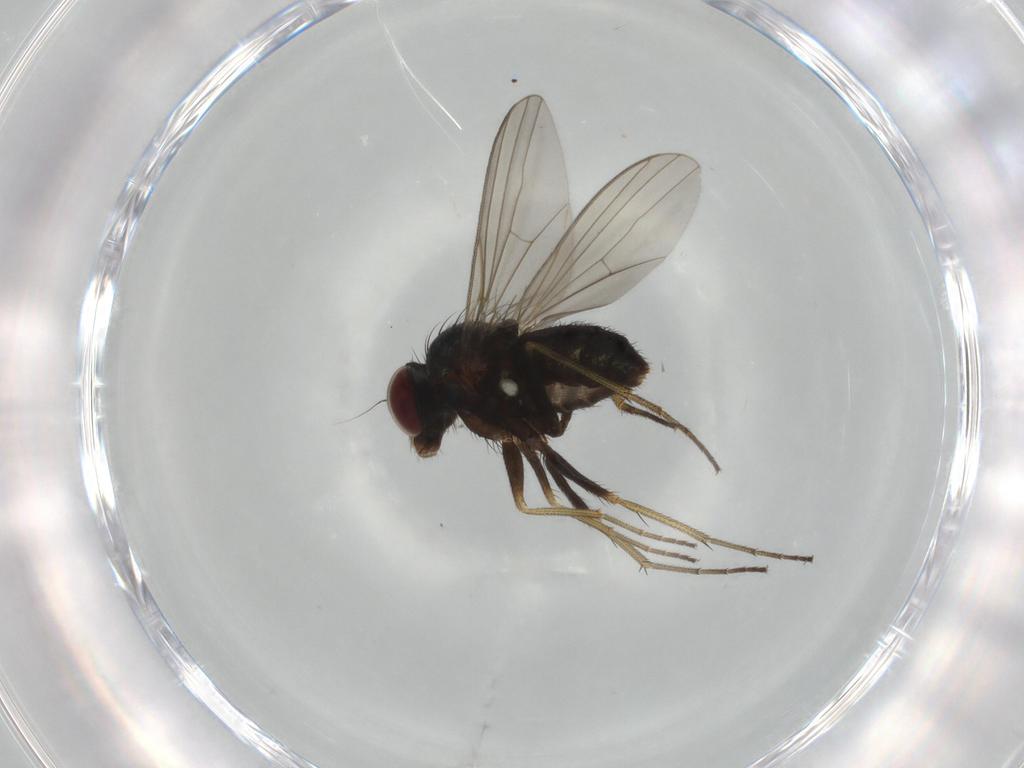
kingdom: Animalia
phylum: Arthropoda
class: Insecta
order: Diptera
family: Dolichopodidae
